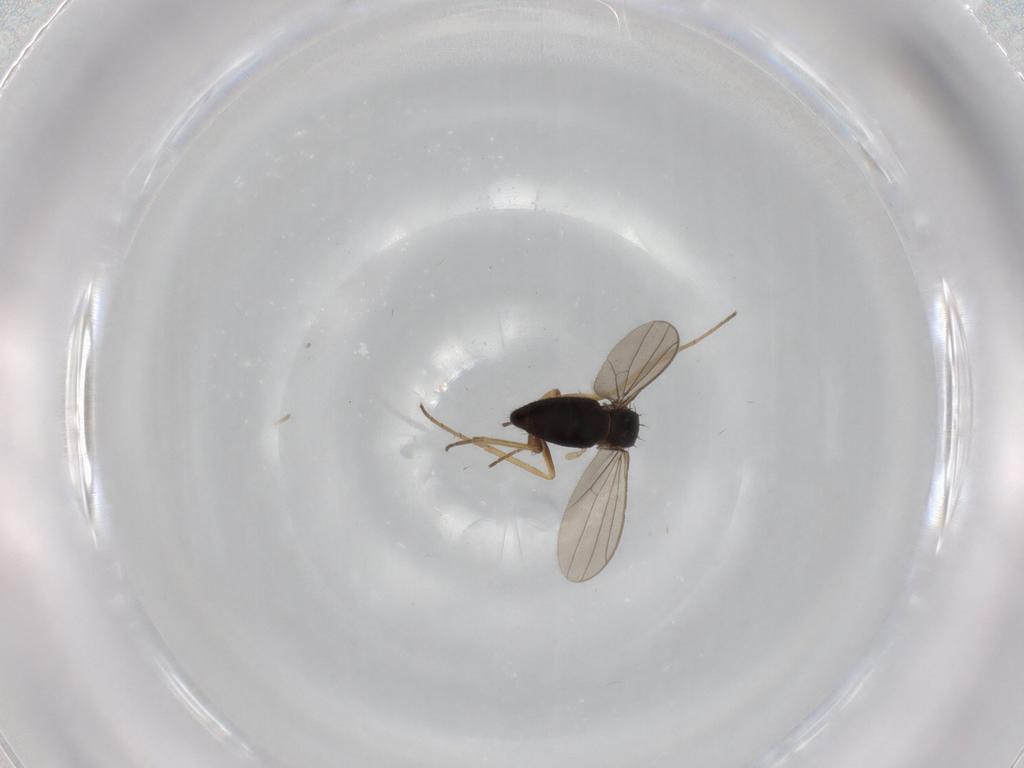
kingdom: Animalia
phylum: Arthropoda
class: Insecta
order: Diptera
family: Dolichopodidae
